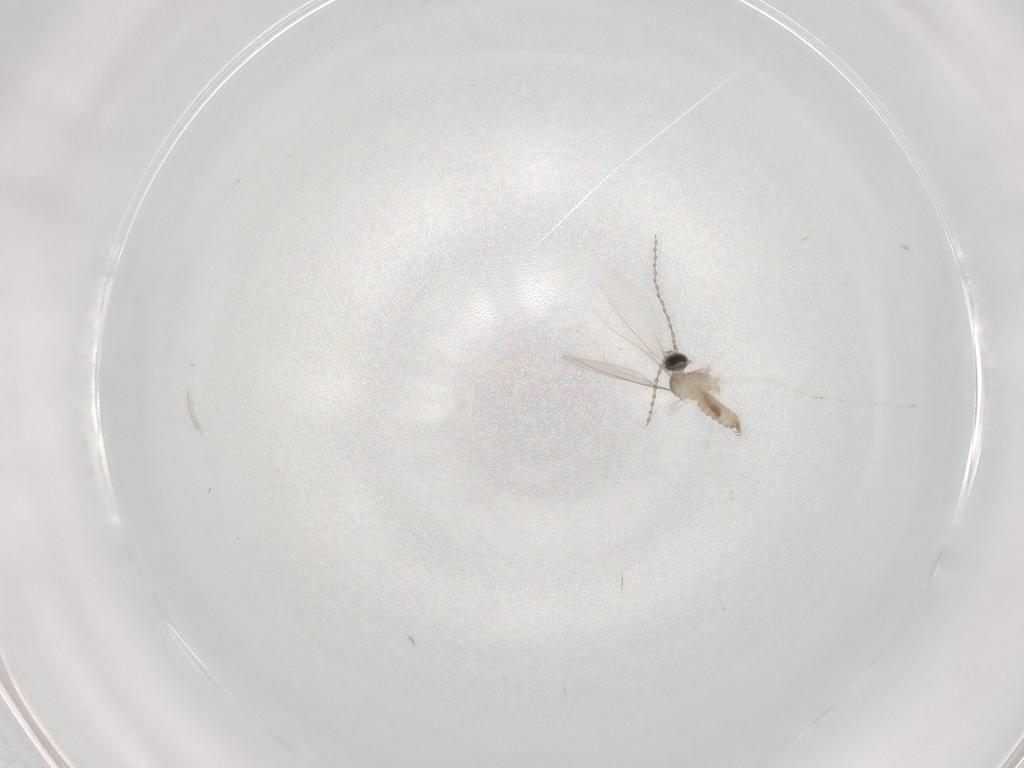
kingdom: Animalia
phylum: Arthropoda
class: Insecta
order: Diptera
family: Cecidomyiidae
